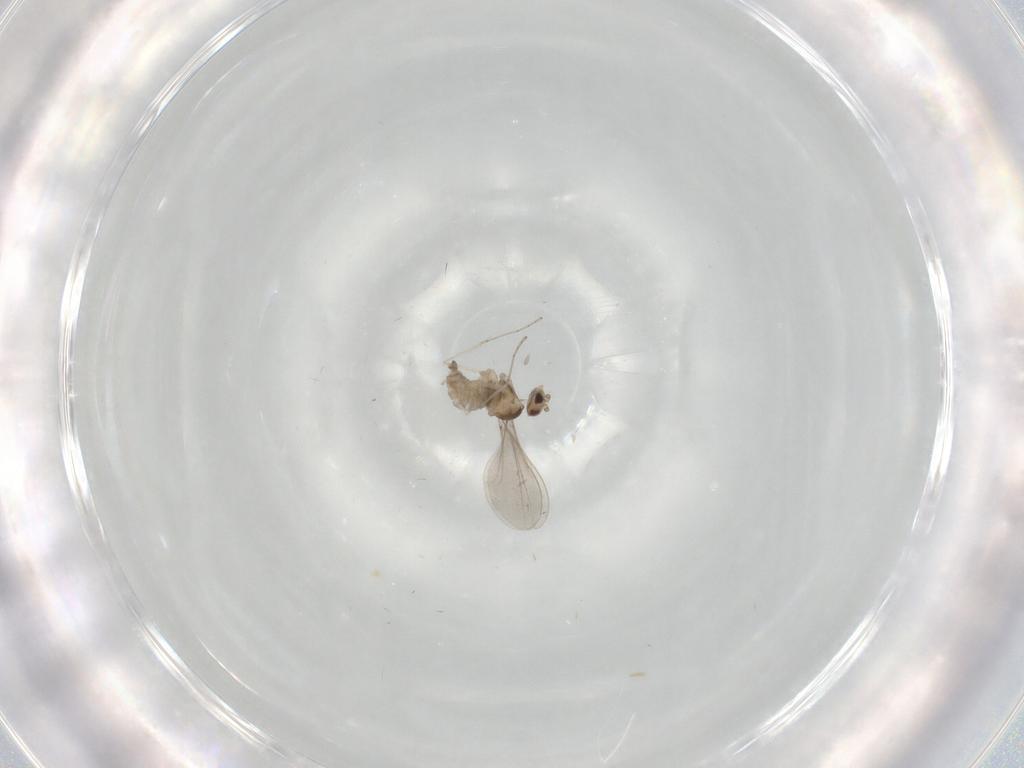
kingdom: Animalia
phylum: Arthropoda
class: Insecta
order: Diptera
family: Cecidomyiidae
